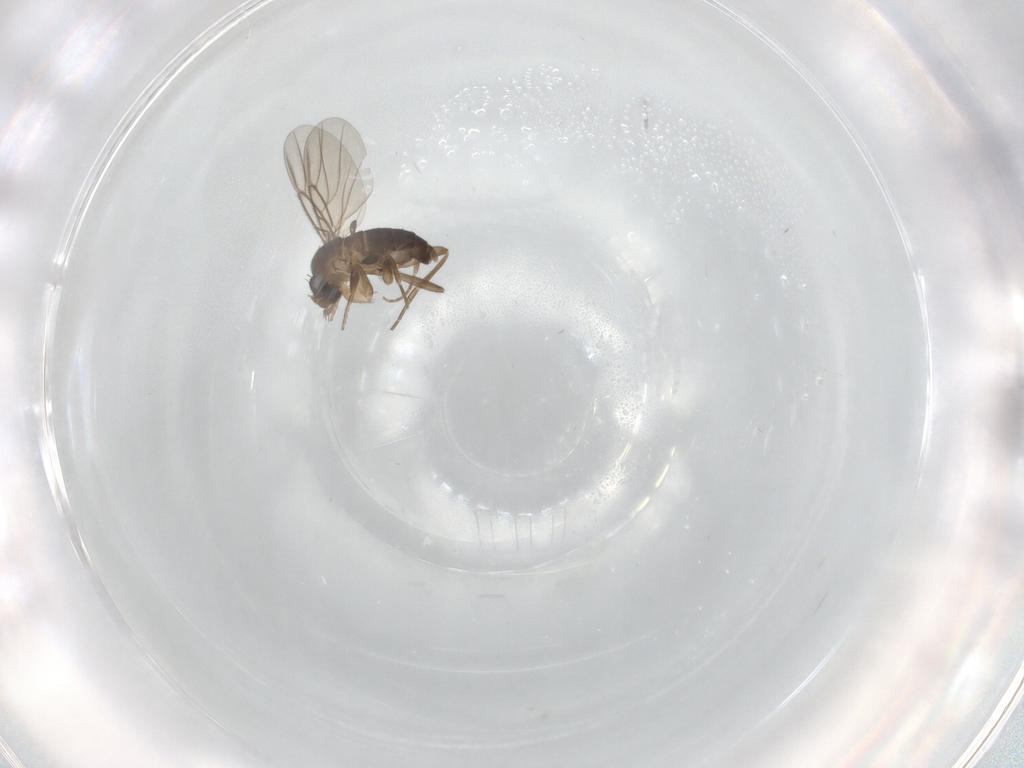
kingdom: Animalia
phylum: Arthropoda
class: Insecta
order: Diptera
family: Phoridae
